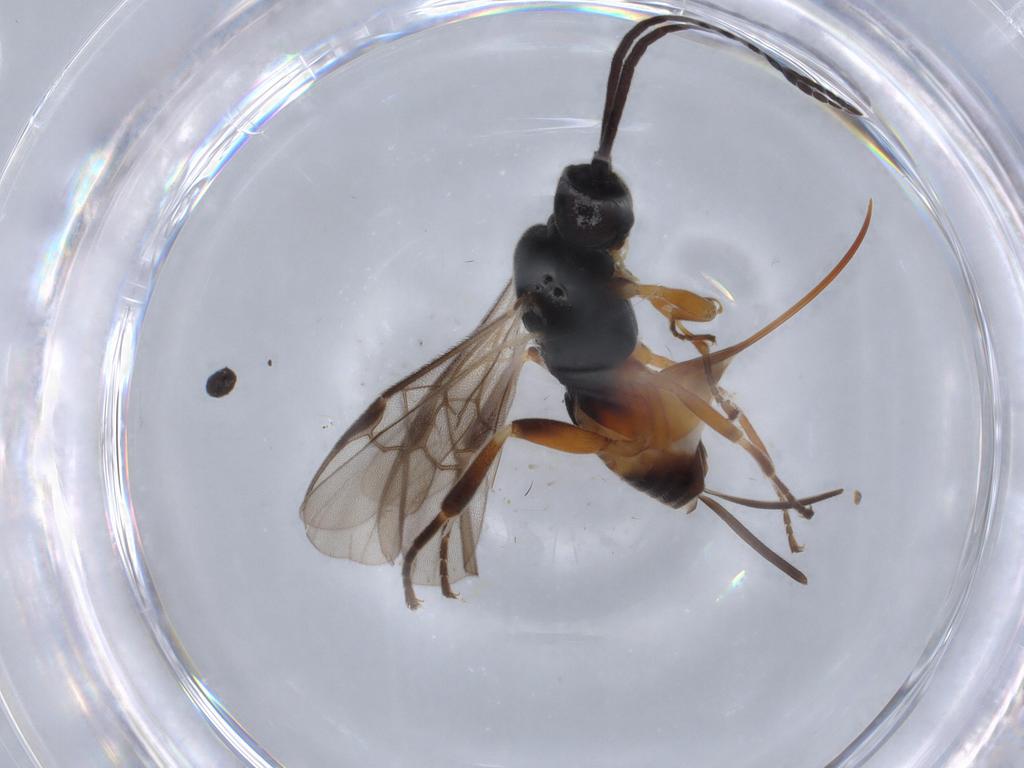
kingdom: Animalia
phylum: Arthropoda
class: Insecta
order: Hymenoptera
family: Braconidae
